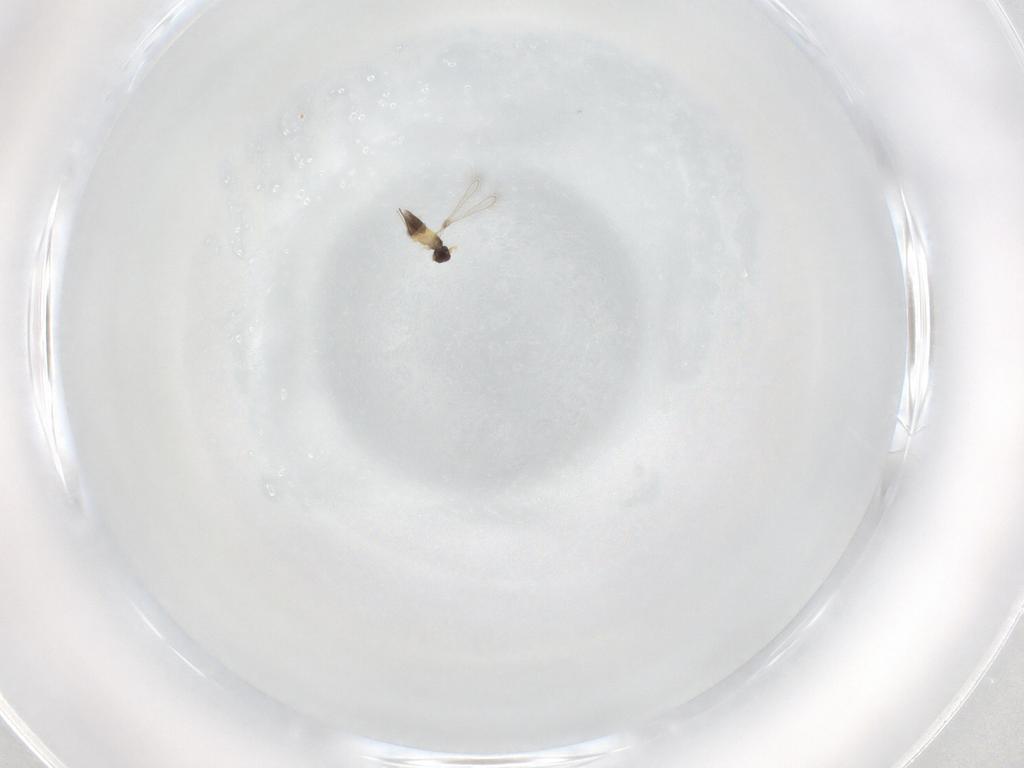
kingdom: Animalia
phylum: Arthropoda
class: Insecta
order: Hymenoptera
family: Mymaridae
